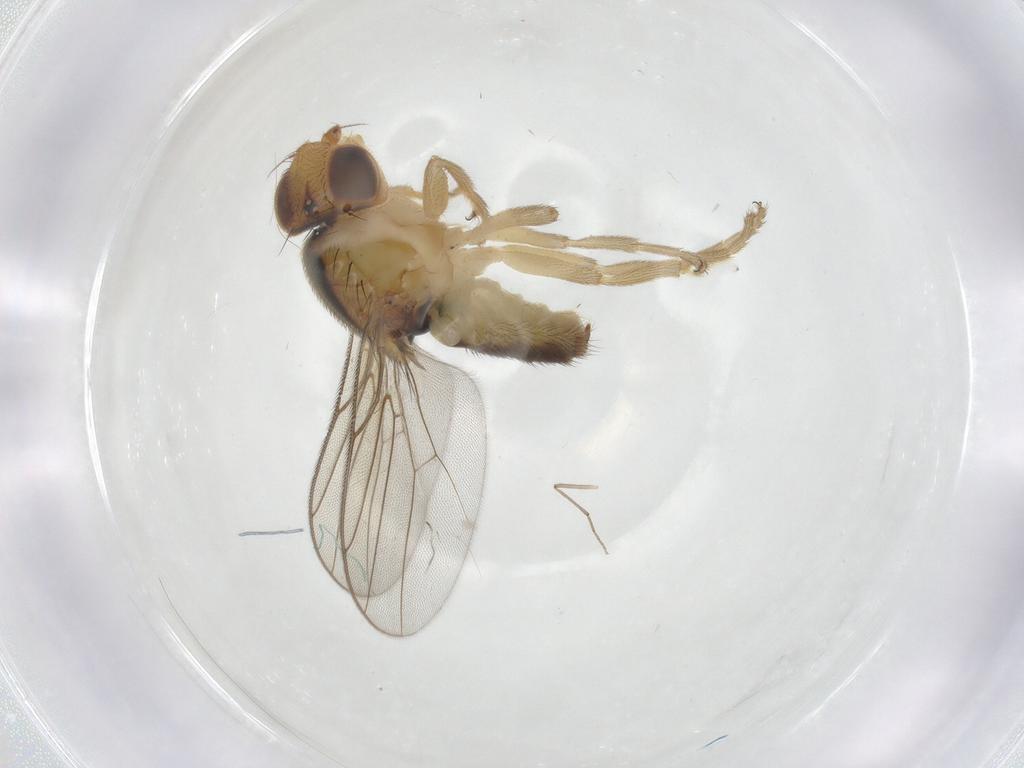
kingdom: Animalia
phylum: Arthropoda
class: Insecta
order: Diptera
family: Chloropidae
